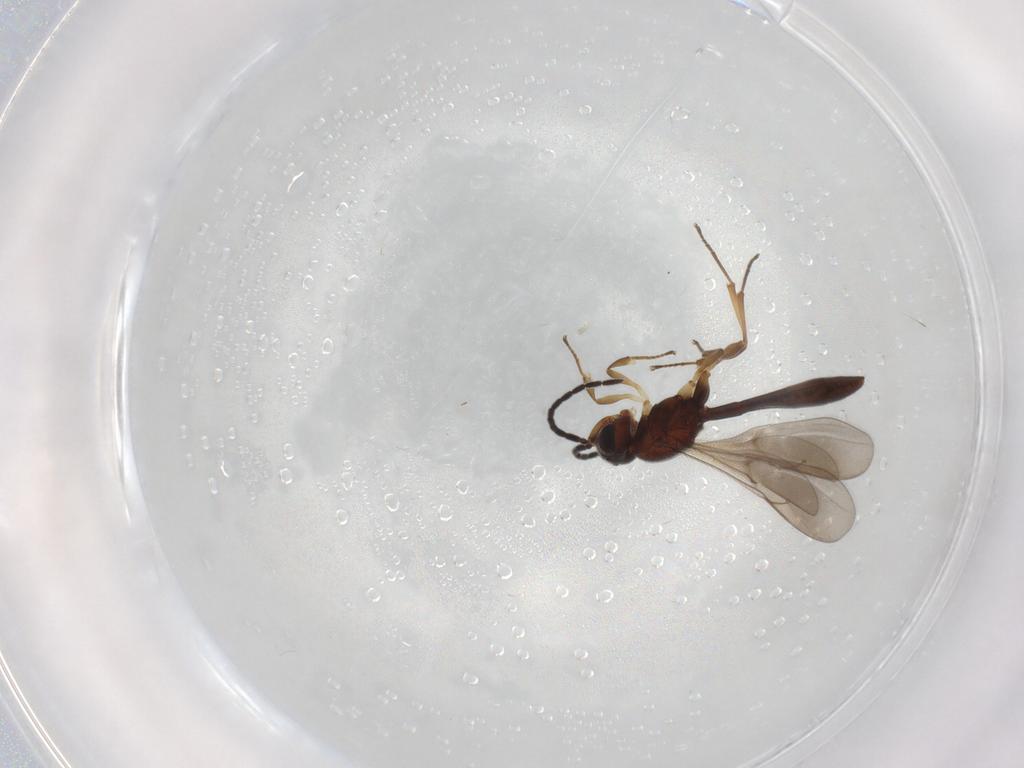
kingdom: Animalia
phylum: Arthropoda
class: Insecta
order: Hymenoptera
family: Scelionidae
